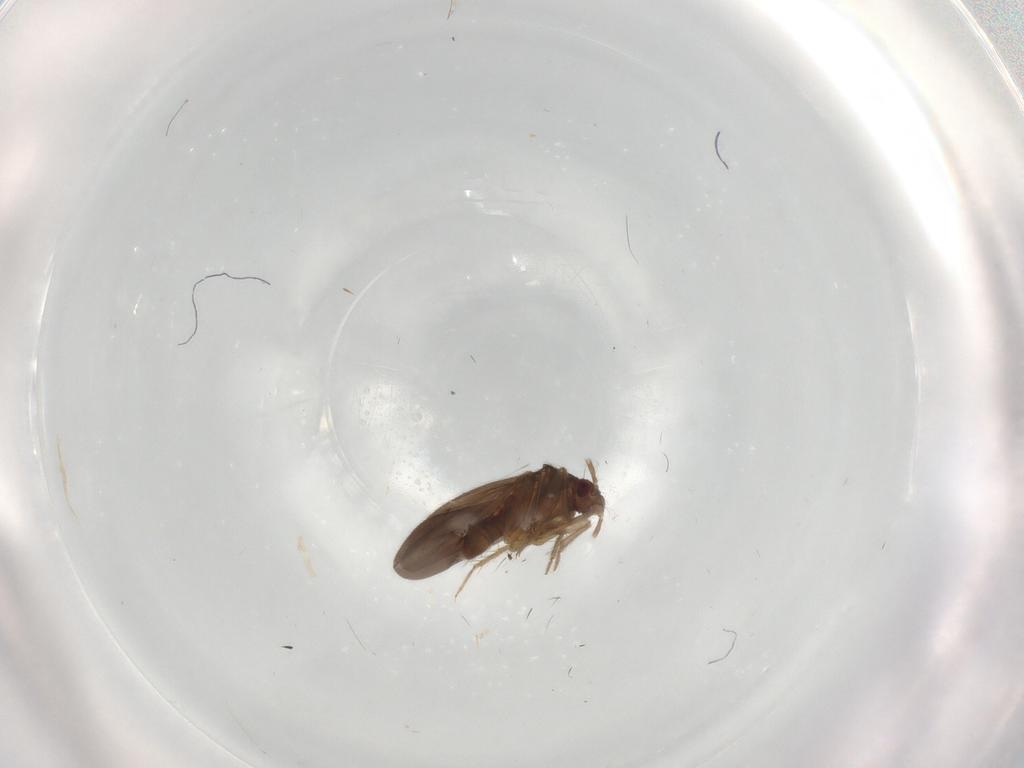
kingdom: Animalia
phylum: Arthropoda
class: Insecta
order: Hemiptera
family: Ceratocombidae
